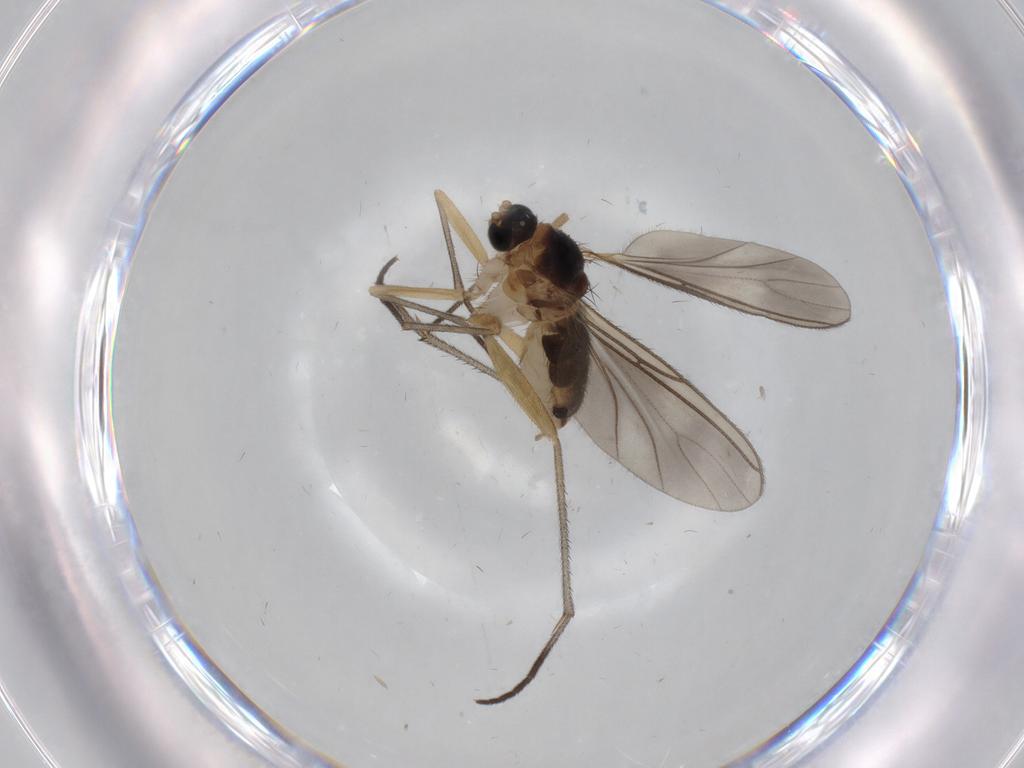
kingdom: Animalia
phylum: Arthropoda
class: Insecta
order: Diptera
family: Sciaridae
